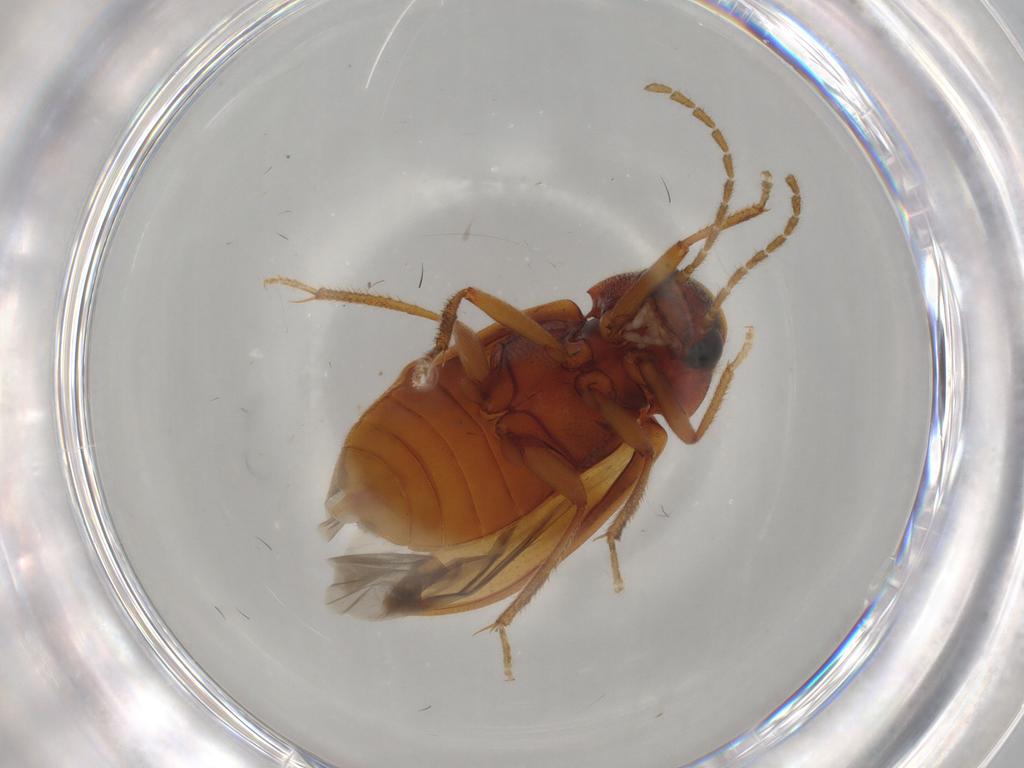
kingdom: Animalia
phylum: Arthropoda
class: Insecta
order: Coleoptera
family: Ptilodactylidae
